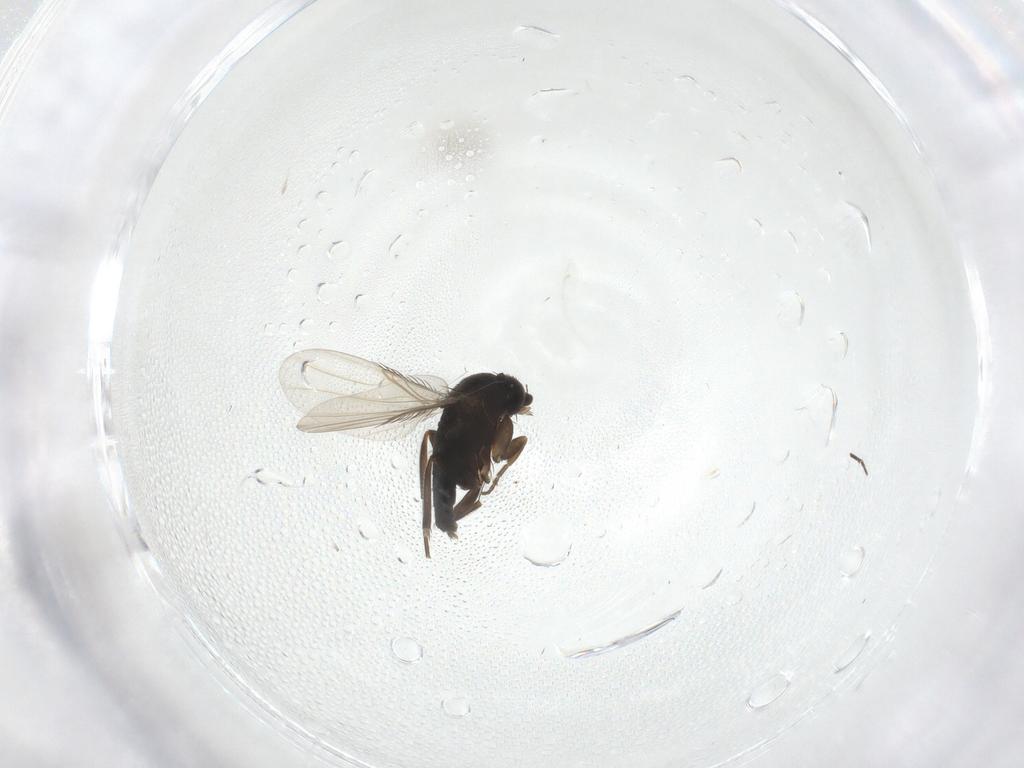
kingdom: Animalia
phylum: Arthropoda
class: Insecta
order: Diptera
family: Phoridae
